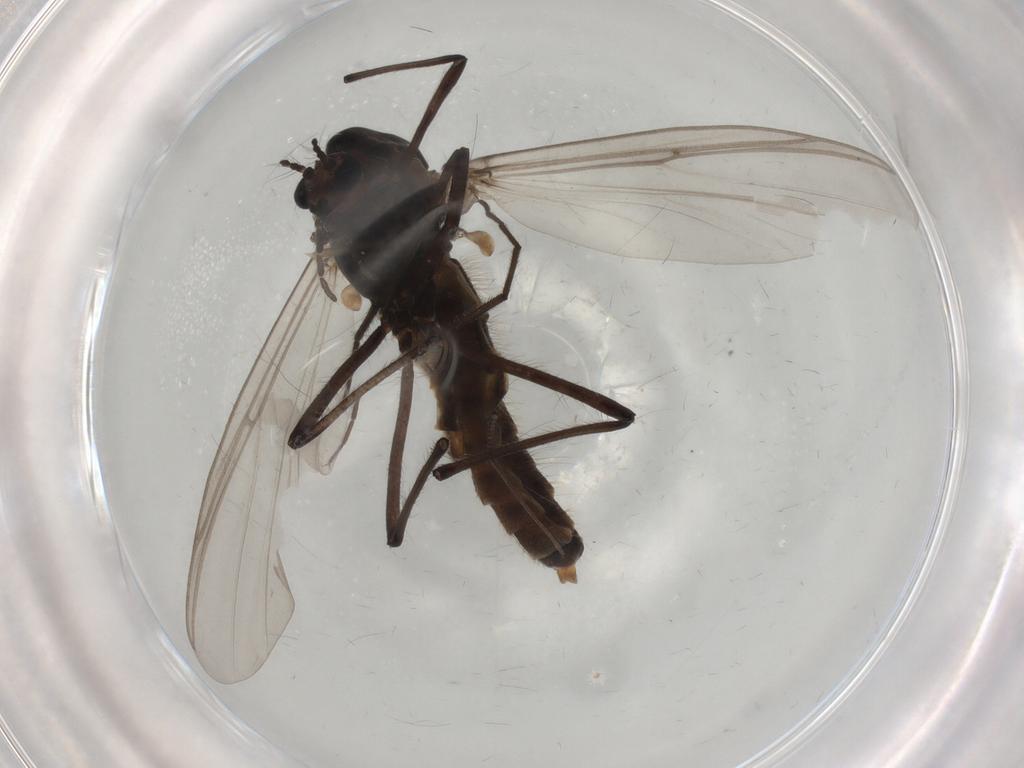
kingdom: Animalia
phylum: Arthropoda
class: Insecta
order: Diptera
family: Chironomidae
